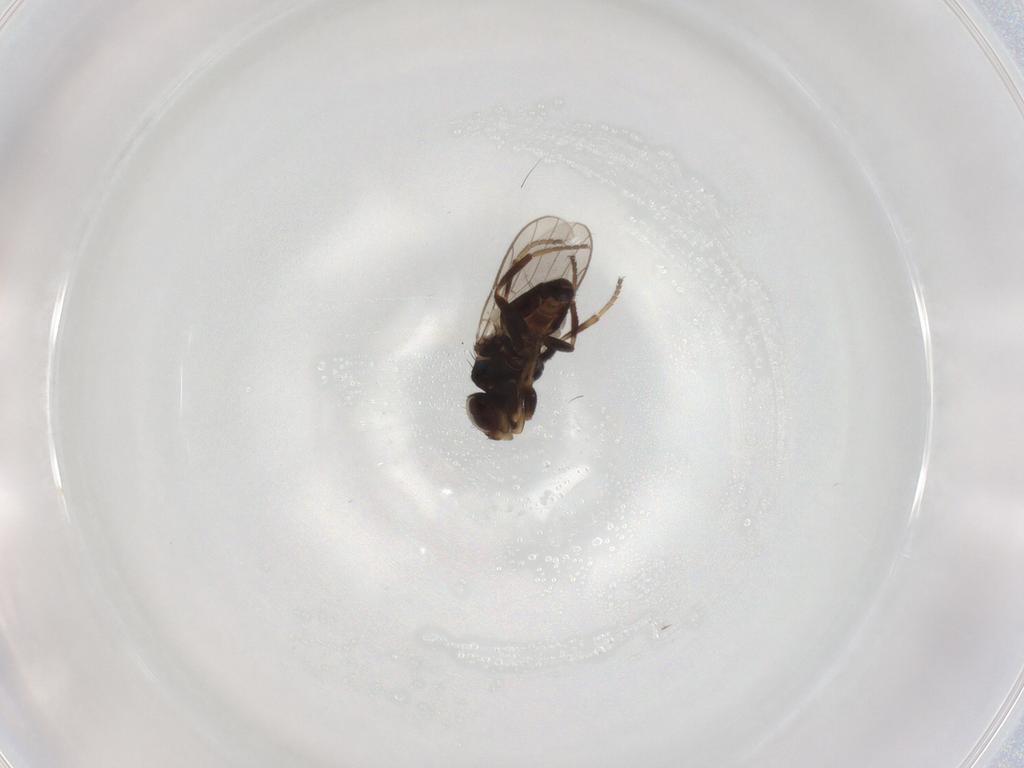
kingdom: Animalia
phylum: Arthropoda
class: Insecta
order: Diptera
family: Chloropidae
